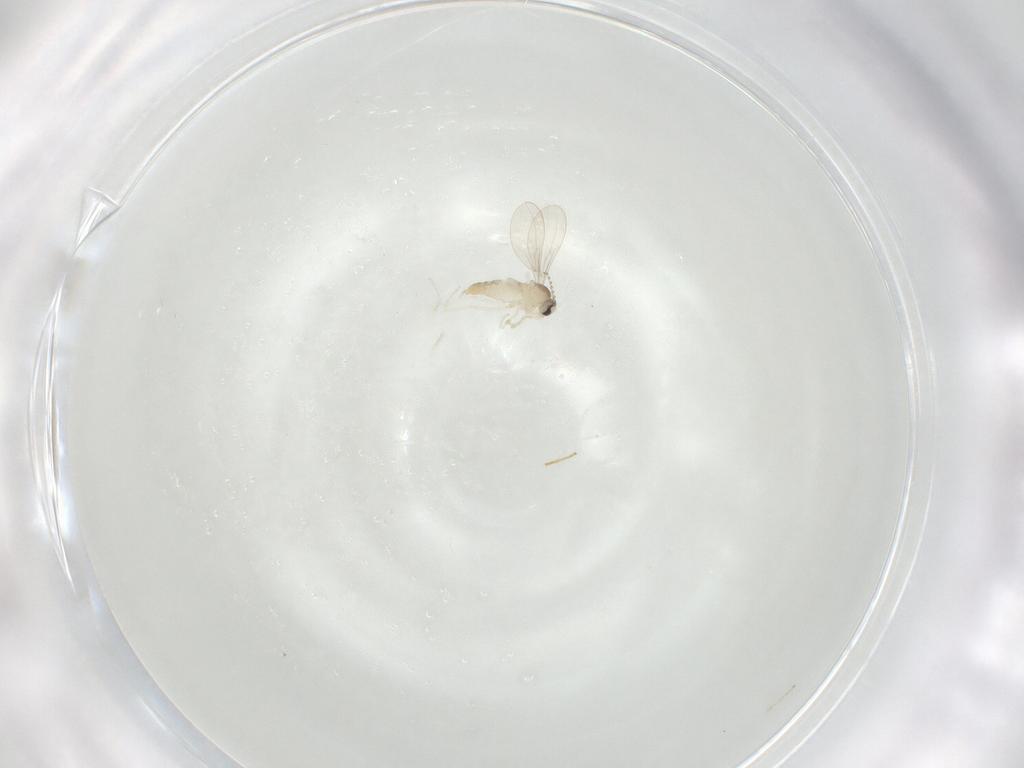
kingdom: Animalia
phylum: Arthropoda
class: Insecta
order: Diptera
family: Cecidomyiidae
